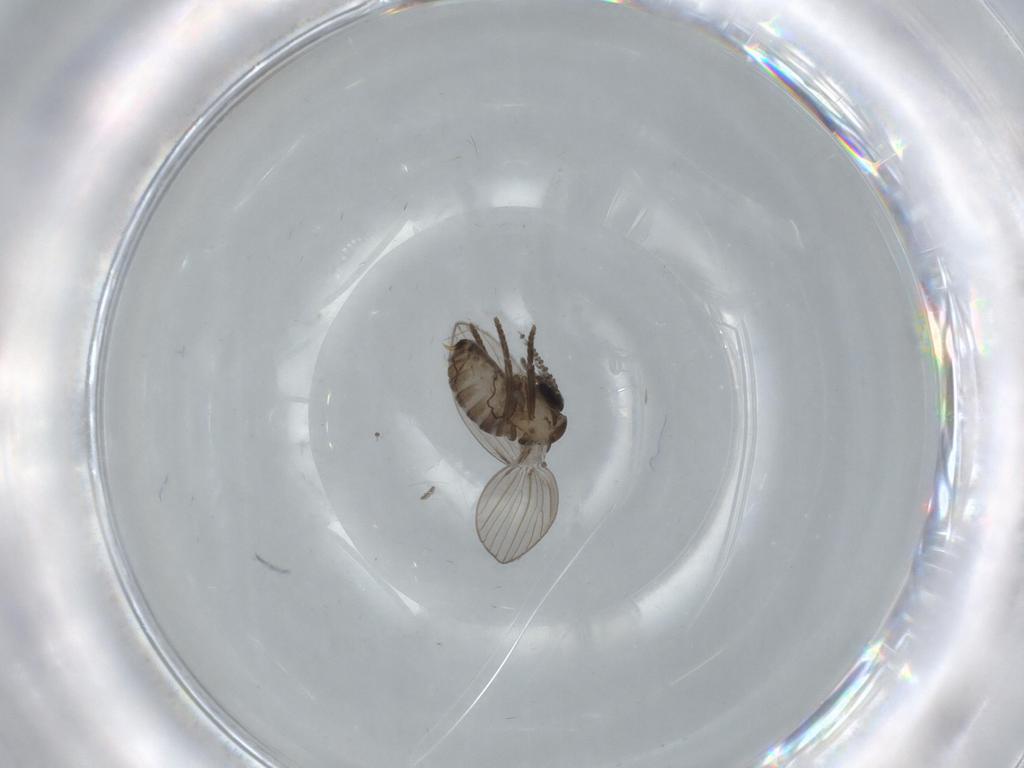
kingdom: Animalia
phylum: Arthropoda
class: Insecta
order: Diptera
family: Psychodidae
